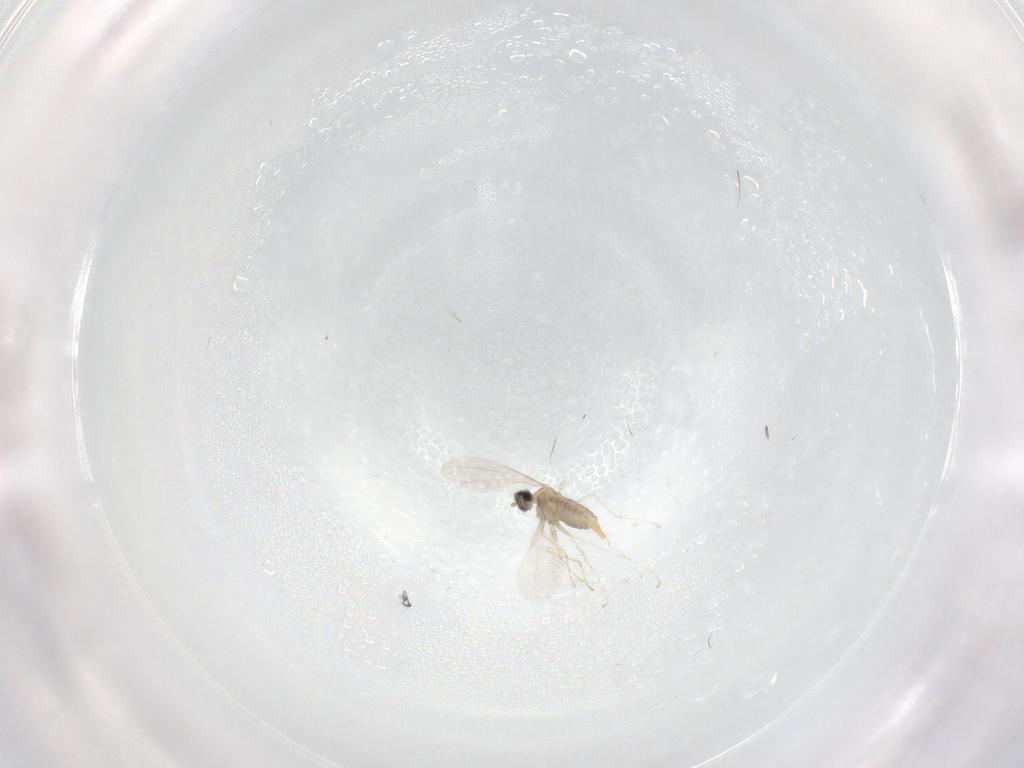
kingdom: Animalia
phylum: Arthropoda
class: Insecta
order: Diptera
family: Cecidomyiidae
